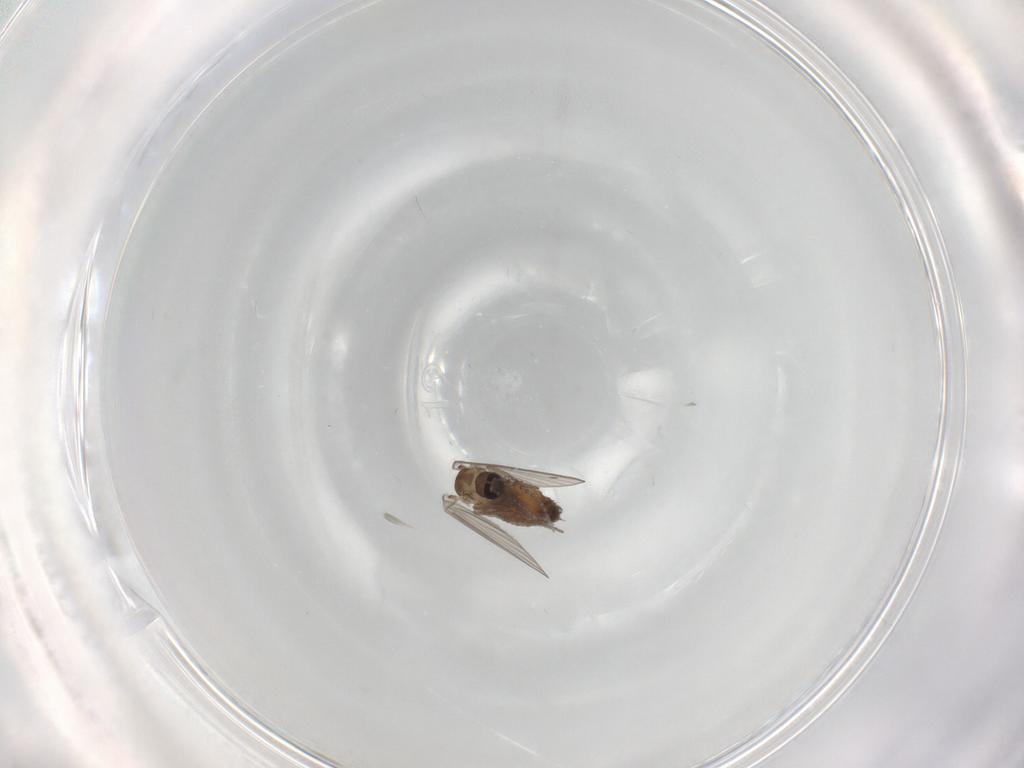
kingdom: Animalia
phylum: Arthropoda
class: Insecta
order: Diptera
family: Psychodidae
